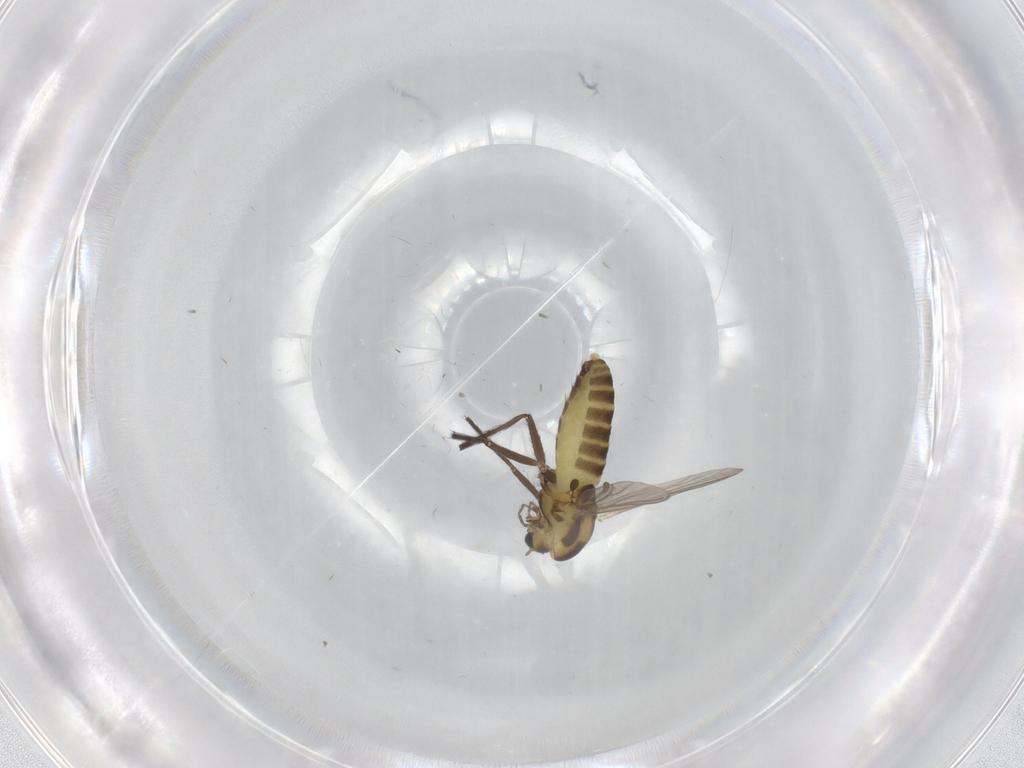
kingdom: Animalia
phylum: Arthropoda
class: Insecta
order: Diptera
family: Chironomidae
